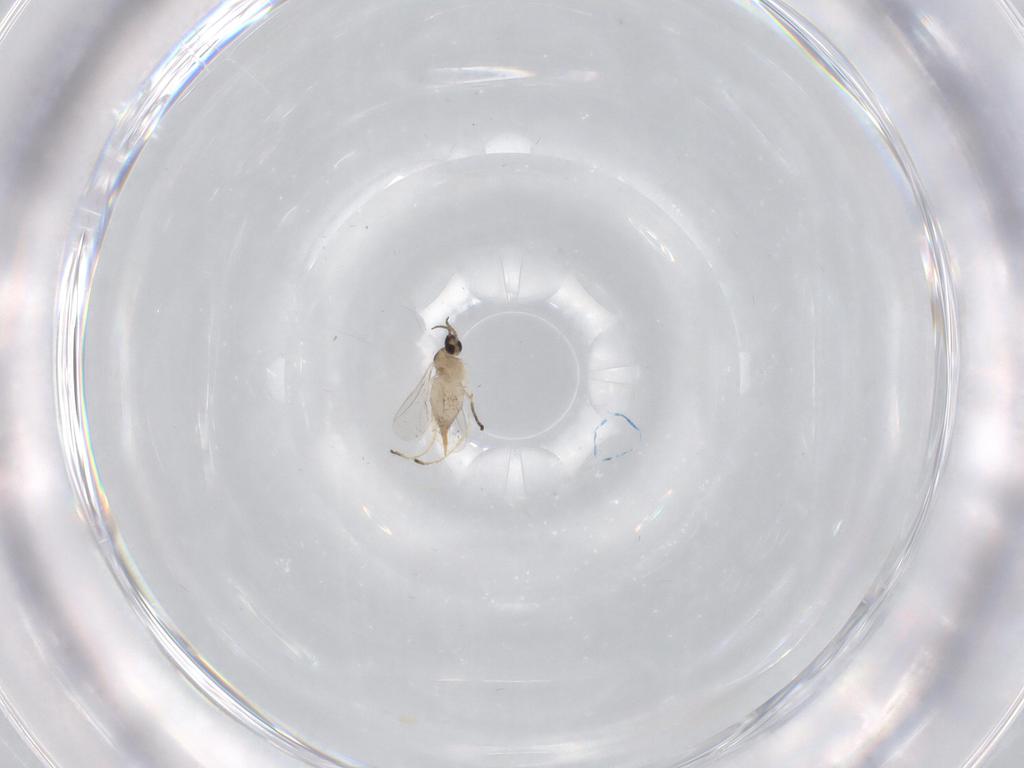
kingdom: Animalia
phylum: Arthropoda
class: Insecta
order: Diptera
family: Cecidomyiidae
